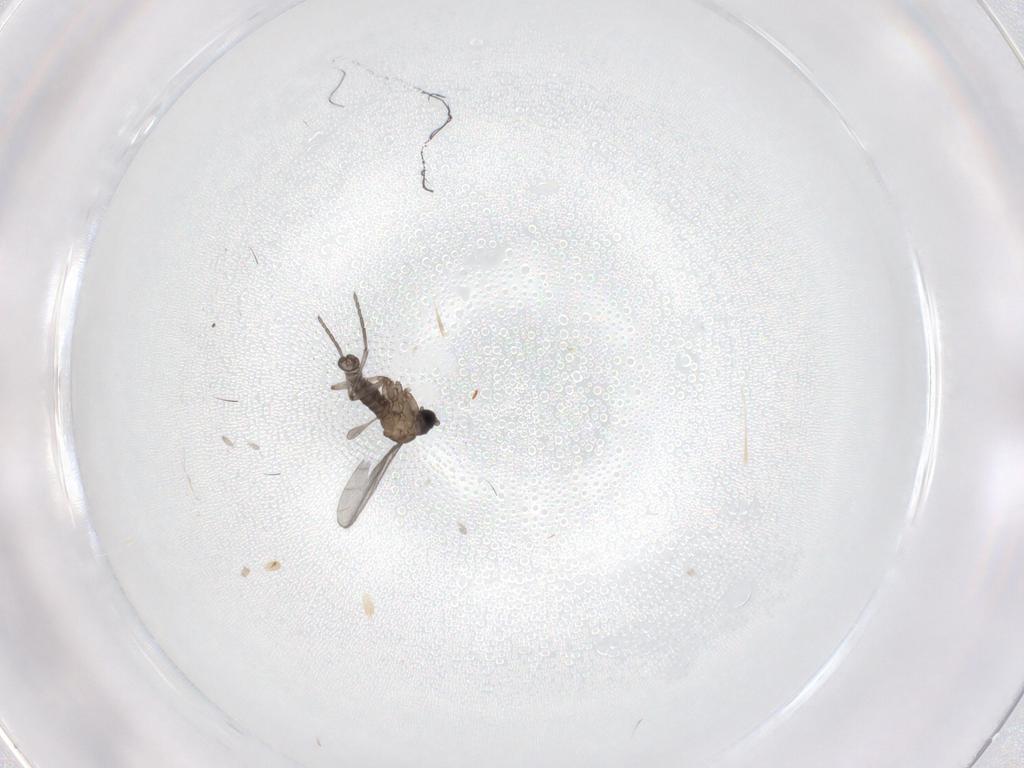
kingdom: Animalia
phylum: Arthropoda
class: Insecta
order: Diptera
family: Sciaridae
